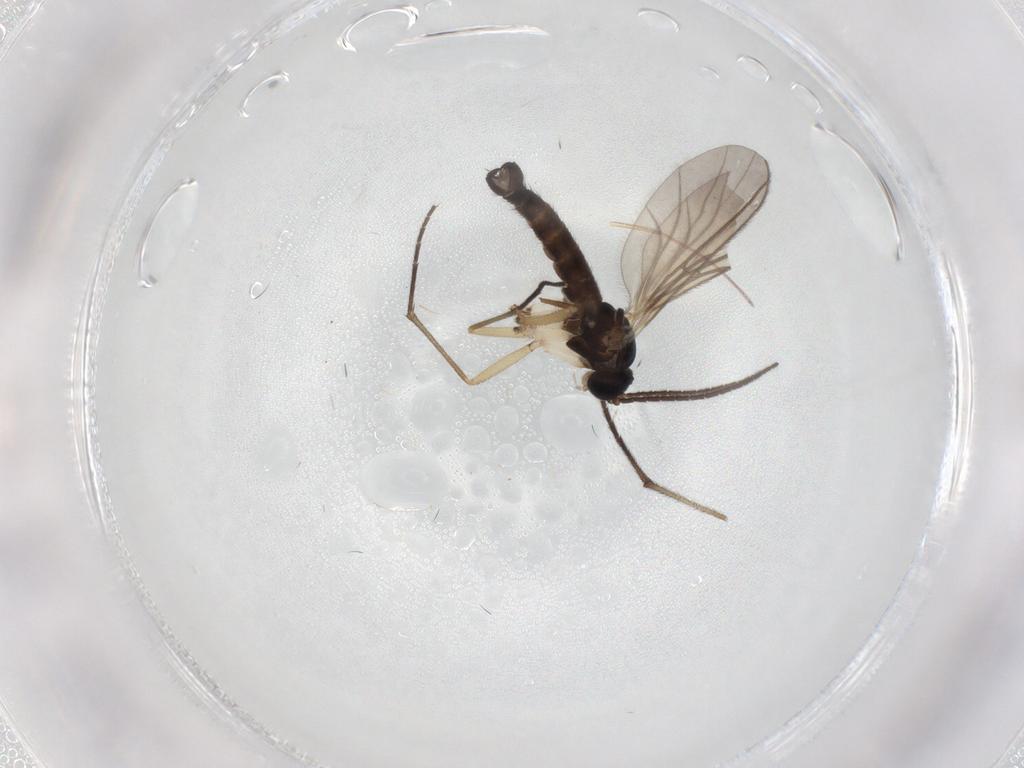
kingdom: Animalia
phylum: Arthropoda
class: Insecta
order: Diptera
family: Sciaridae
